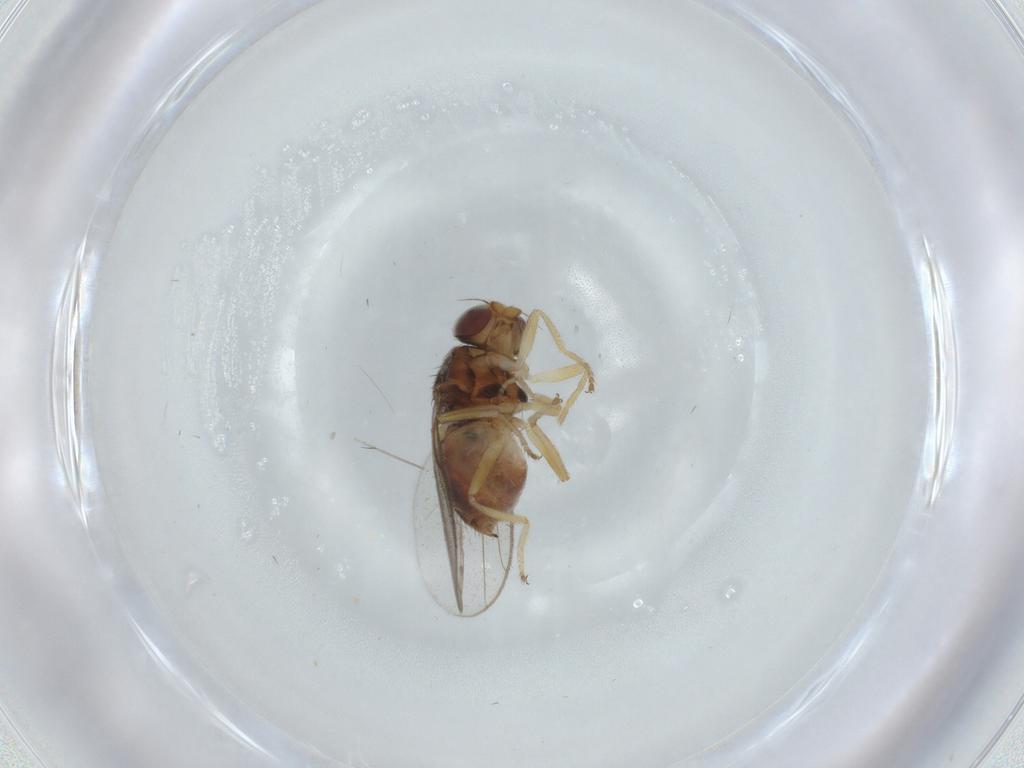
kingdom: Animalia
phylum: Arthropoda
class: Insecta
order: Diptera
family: Chloropidae
